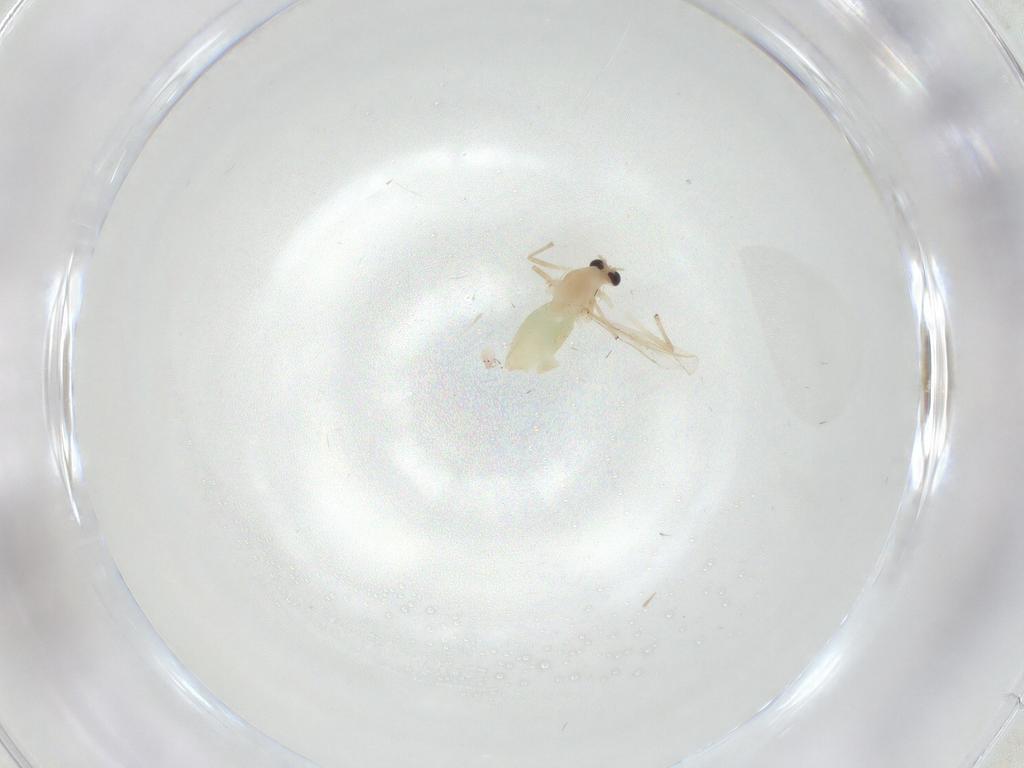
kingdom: Animalia
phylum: Arthropoda
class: Insecta
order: Diptera
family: Chironomidae
